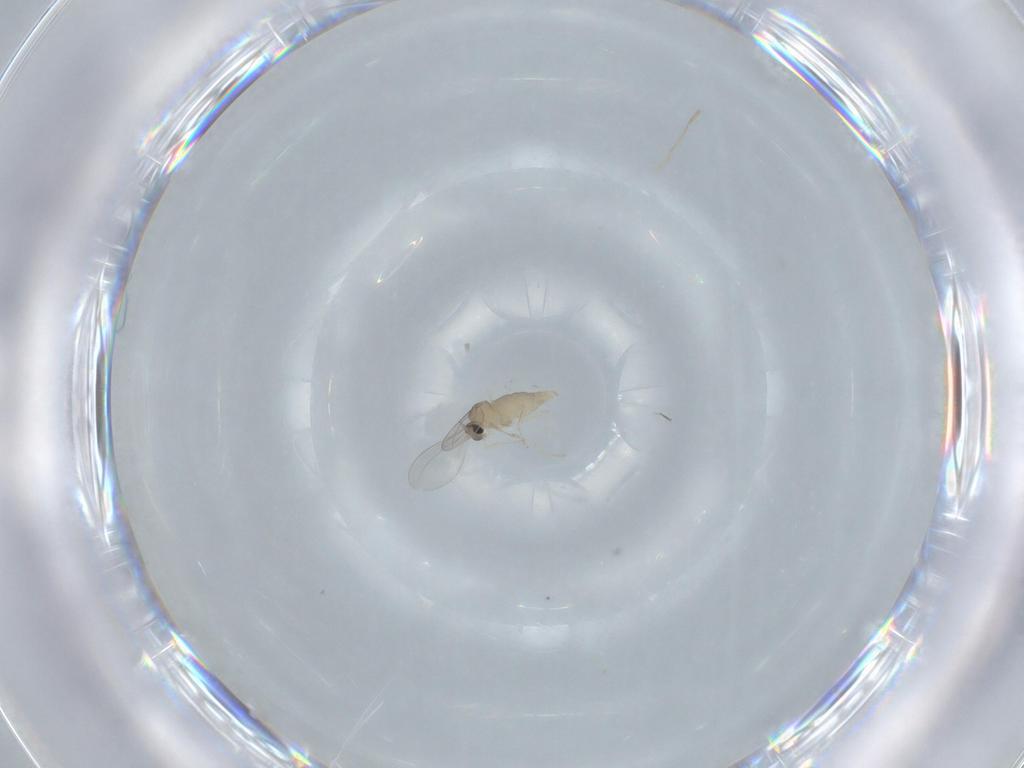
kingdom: Animalia
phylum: Arthropoda
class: Insecta
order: Diptera
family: Cecidomyiidae
